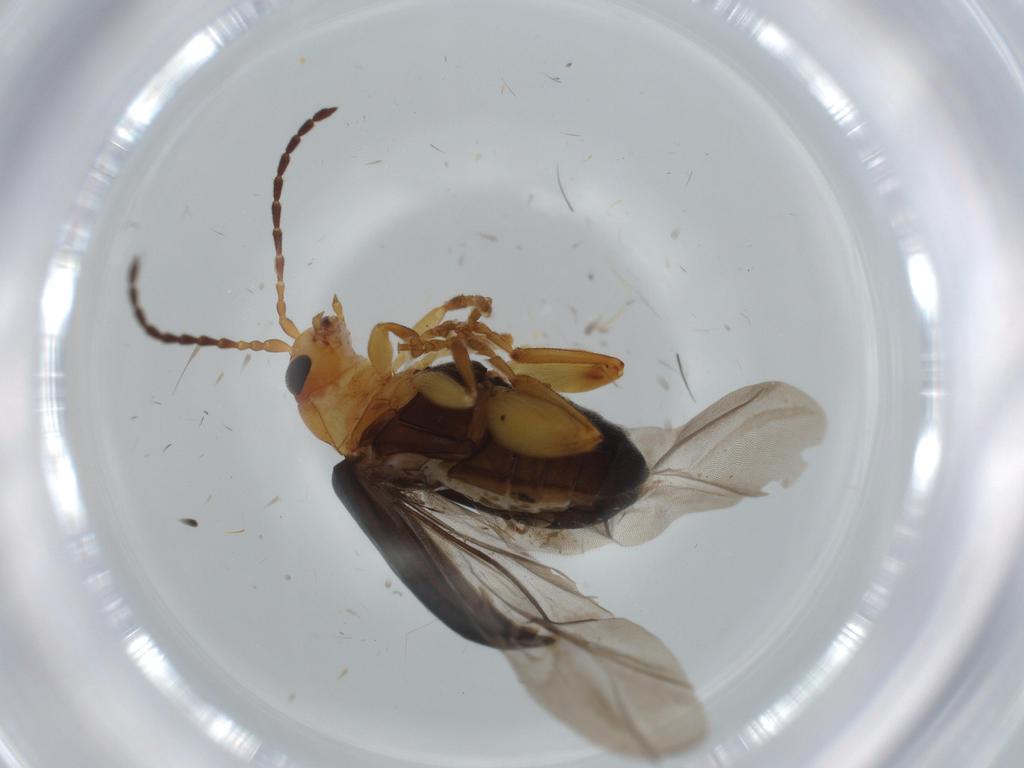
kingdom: Animalia
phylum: Arthropoda
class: Insecta
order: Coleoptera
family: Chrysomelidae
